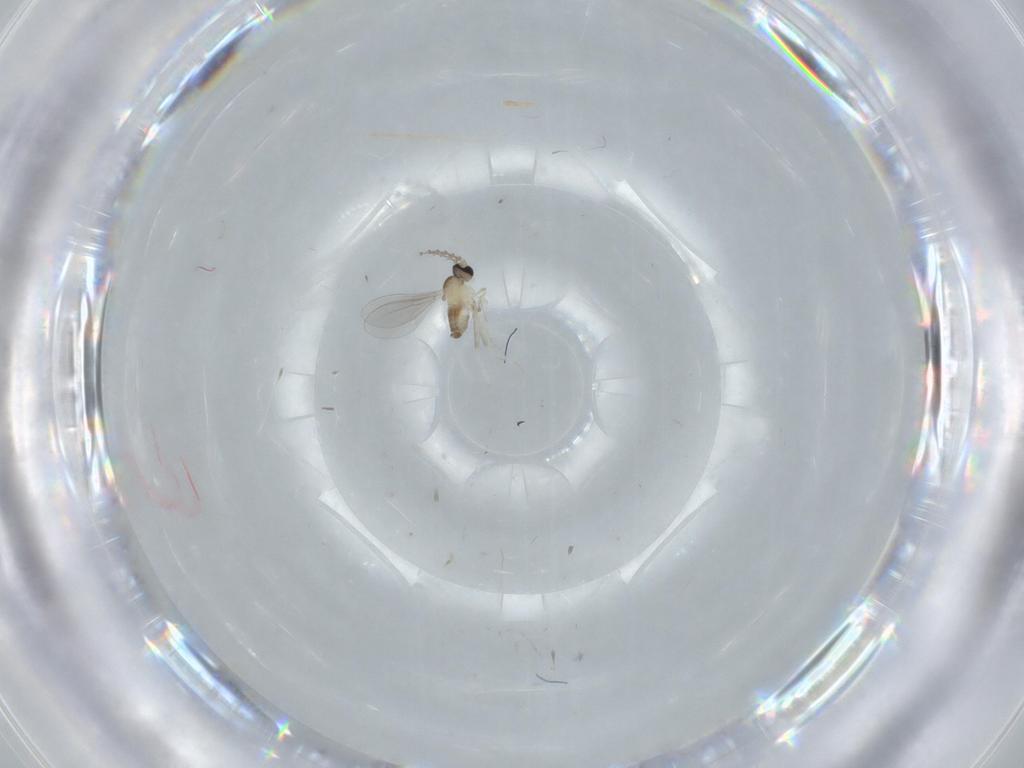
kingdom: Animalia
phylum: Arthropoda
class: Insecta
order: Diptera
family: Cecidomyiidae
